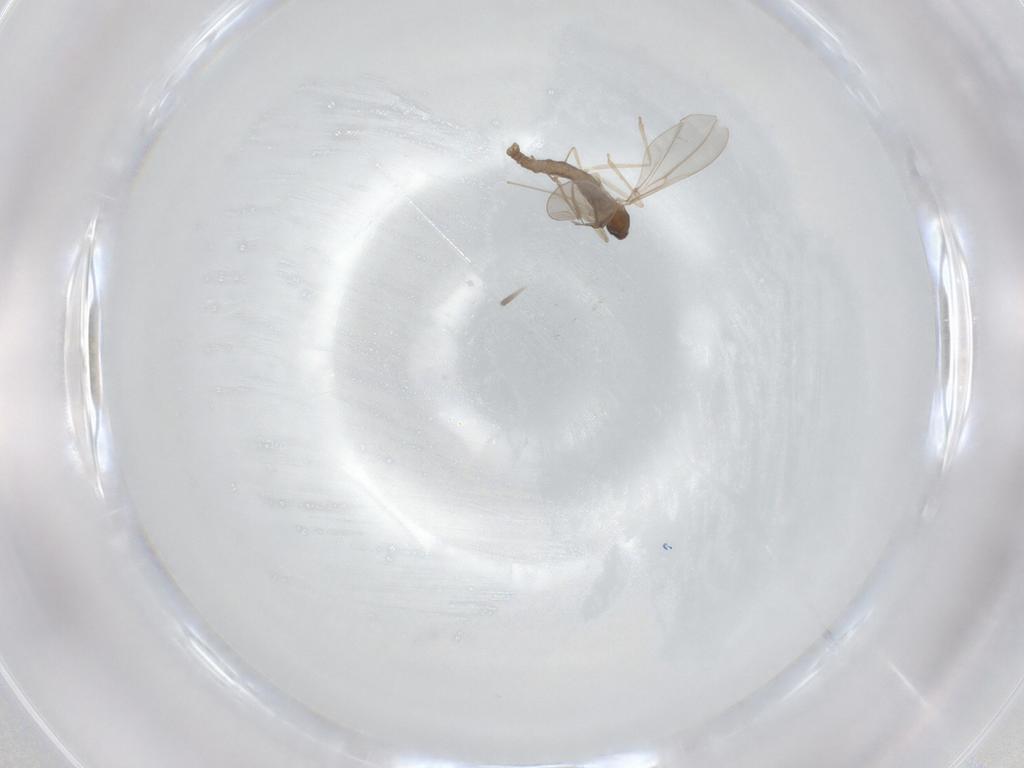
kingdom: Animalia
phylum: Arthropoda
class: Insecta
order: Diptera
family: Cecidomyiidae
